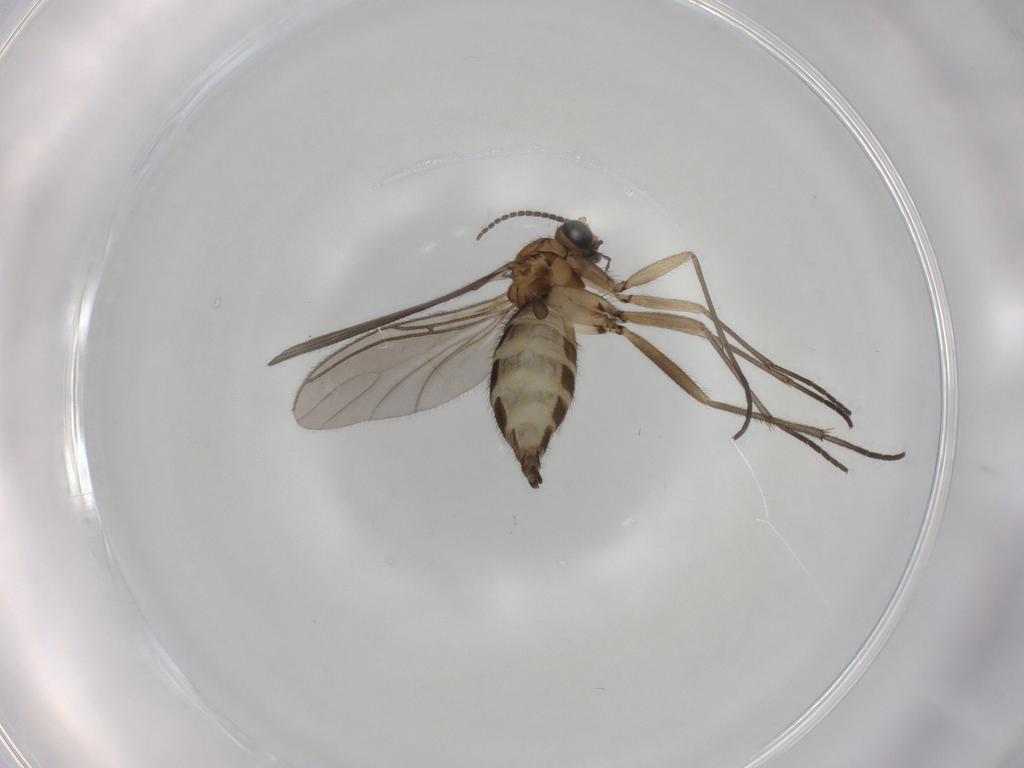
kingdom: Animalia
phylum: Arthropoda
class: Insecta
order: Diptera
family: Sciaridae
